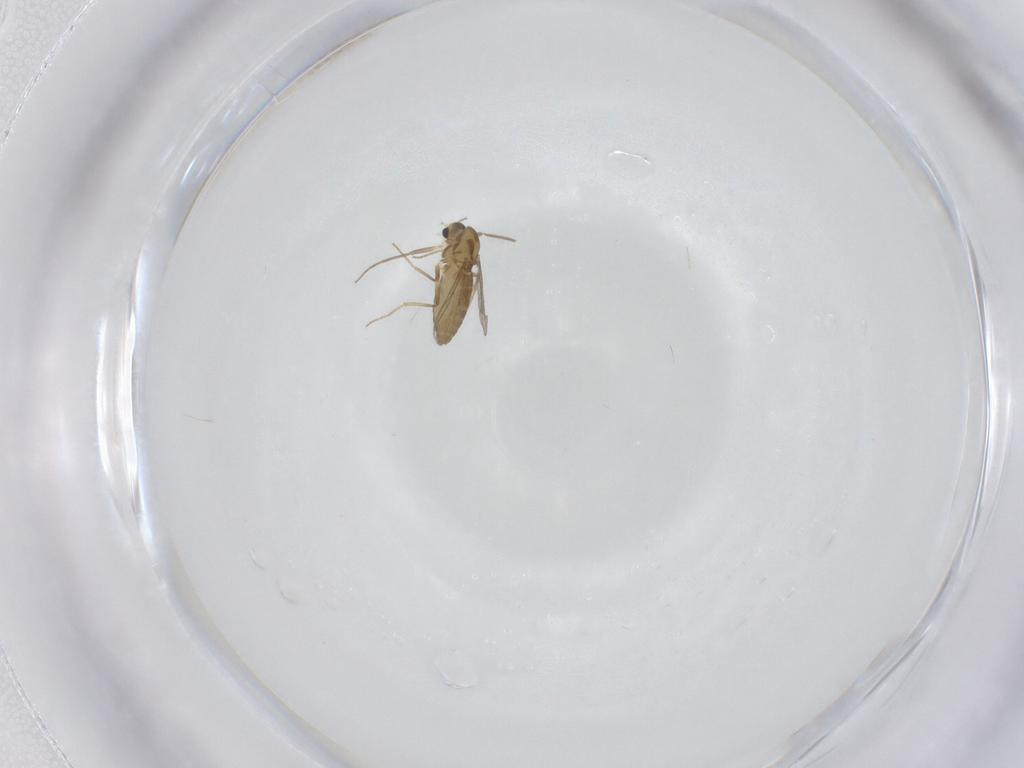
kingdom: Animalia
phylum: Arthropoda
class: Insecta
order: Diptera
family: Chironomidae
